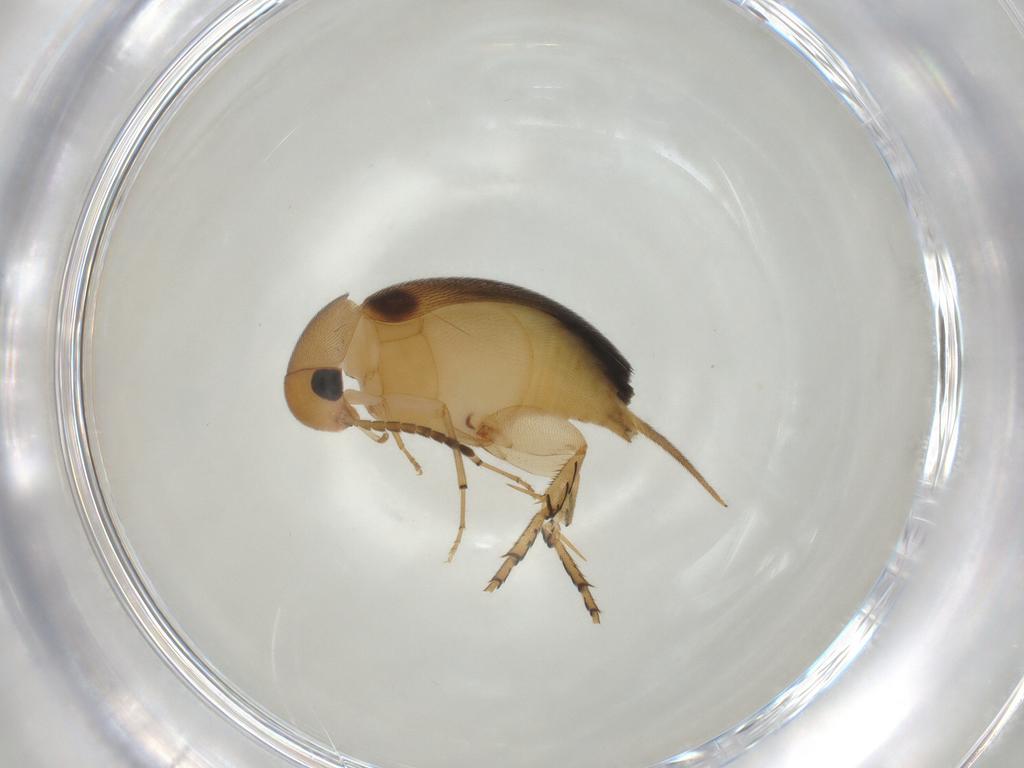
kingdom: Animalia
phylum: Arthropoda
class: Insecta
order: Coleoptera
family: Mordellidae
